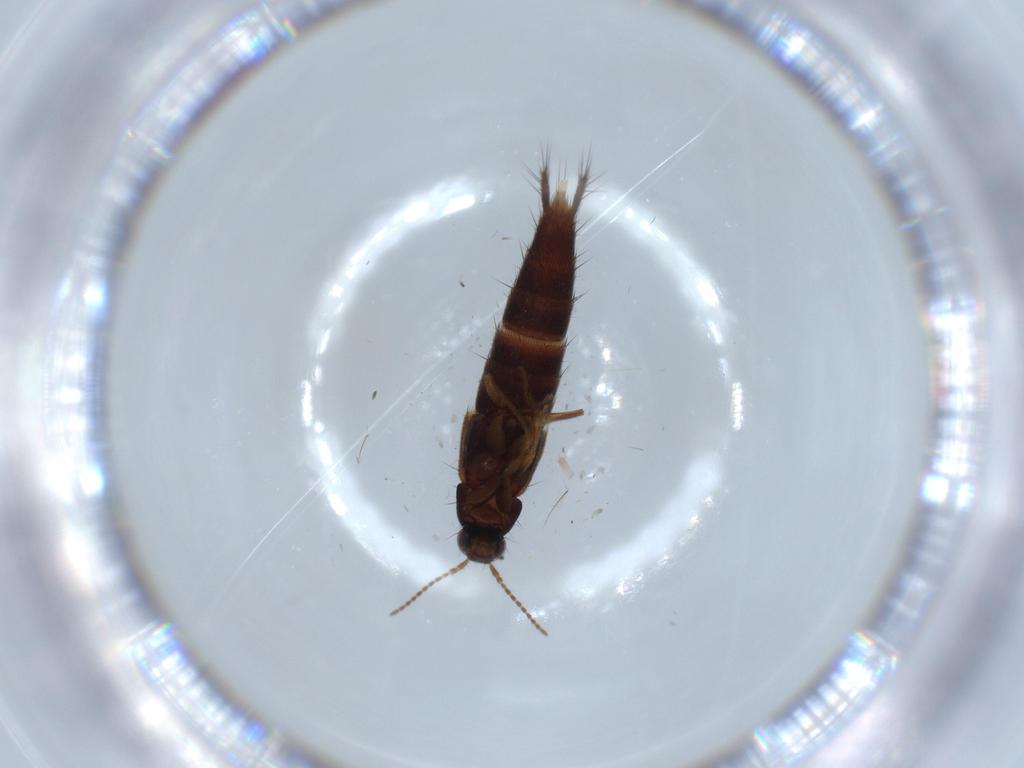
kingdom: Animalia
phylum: Arthropoda
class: Insecta
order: Coleoptera
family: Staphylinidae
